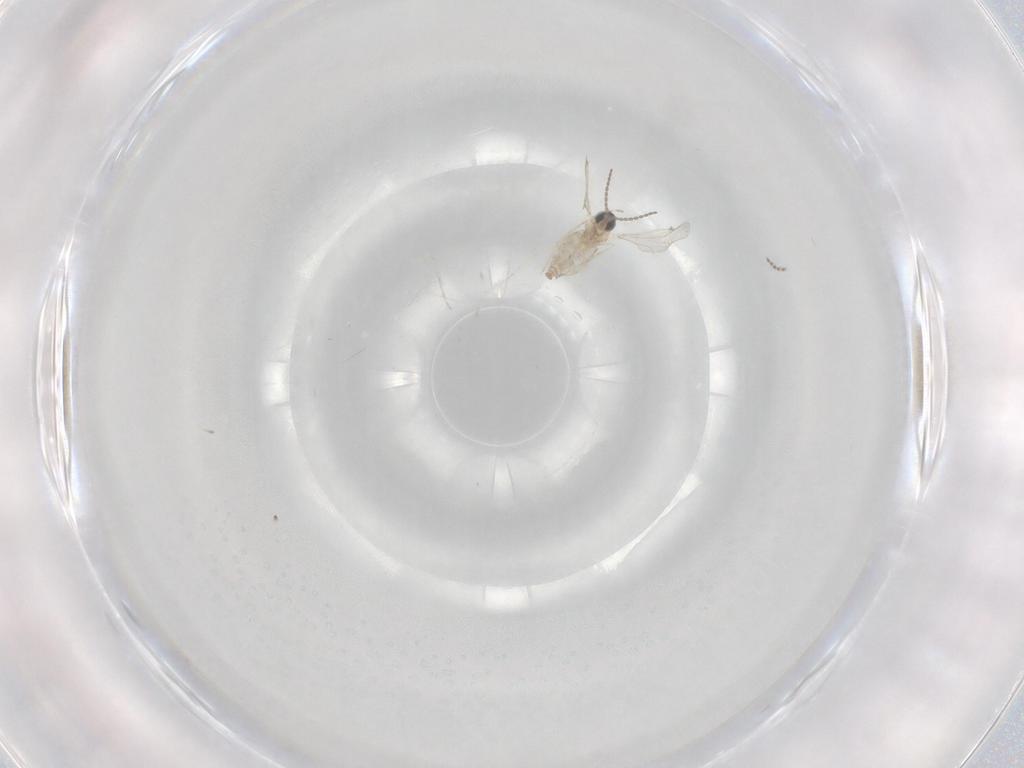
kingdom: Animalia
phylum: Arthropoda
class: Insecta
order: Diptera
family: Cecidomyiidae
